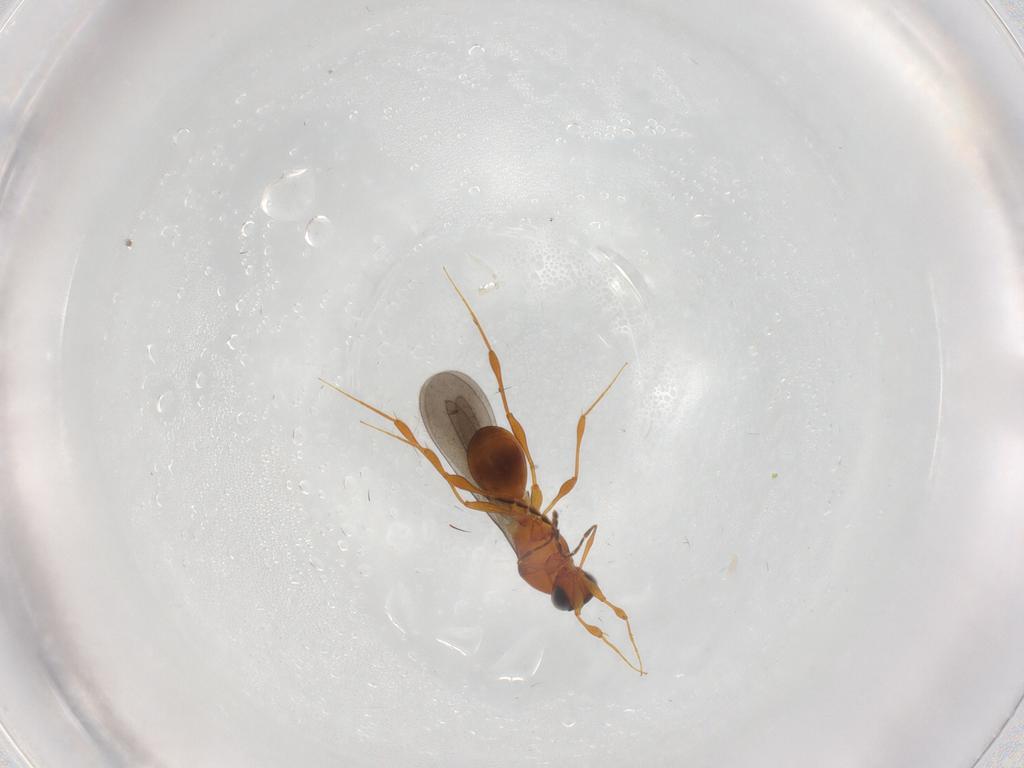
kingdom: Animalia
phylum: Arthropoda
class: Insecta
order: Hymenoptera
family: Platygastridae
